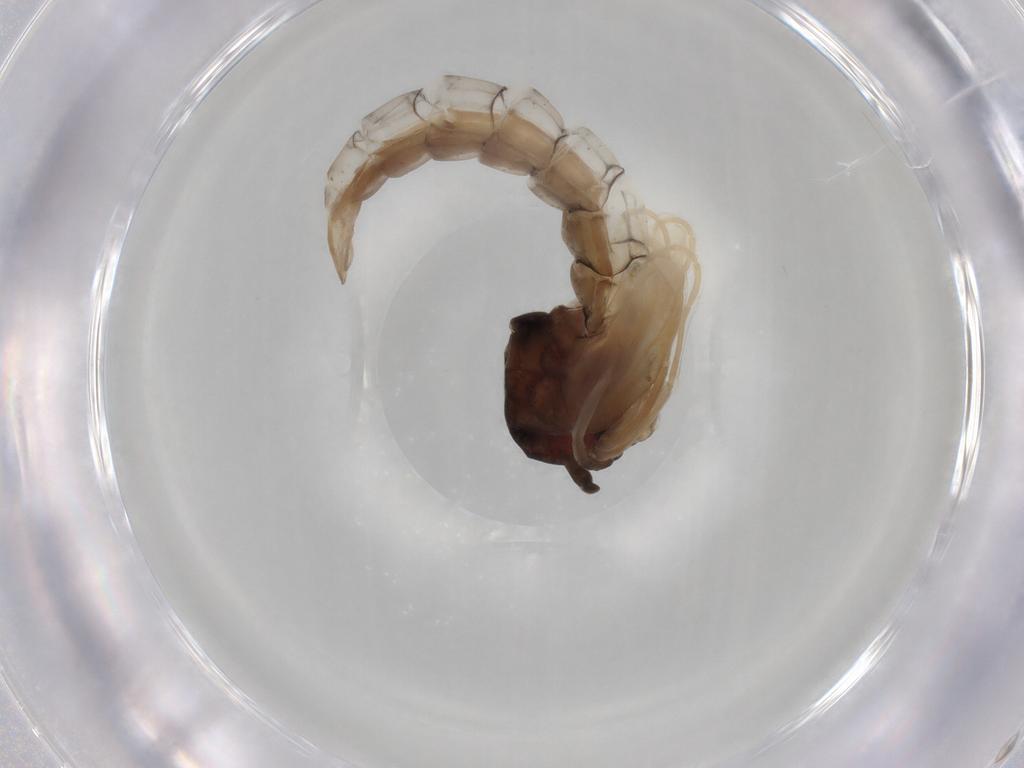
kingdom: Animalia
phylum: Arthropoda
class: Insecta
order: Diptera
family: Chironomidae
